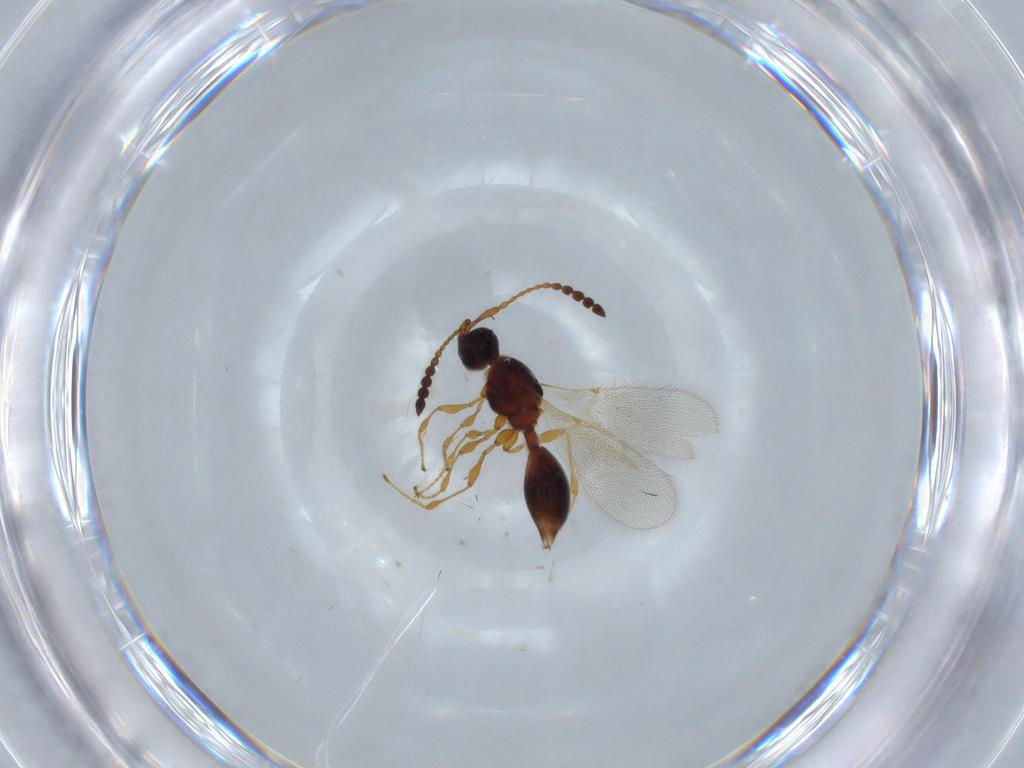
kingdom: Animalia
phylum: Arthropoda
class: Insecta
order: Hymenoptera
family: Diapriidae
